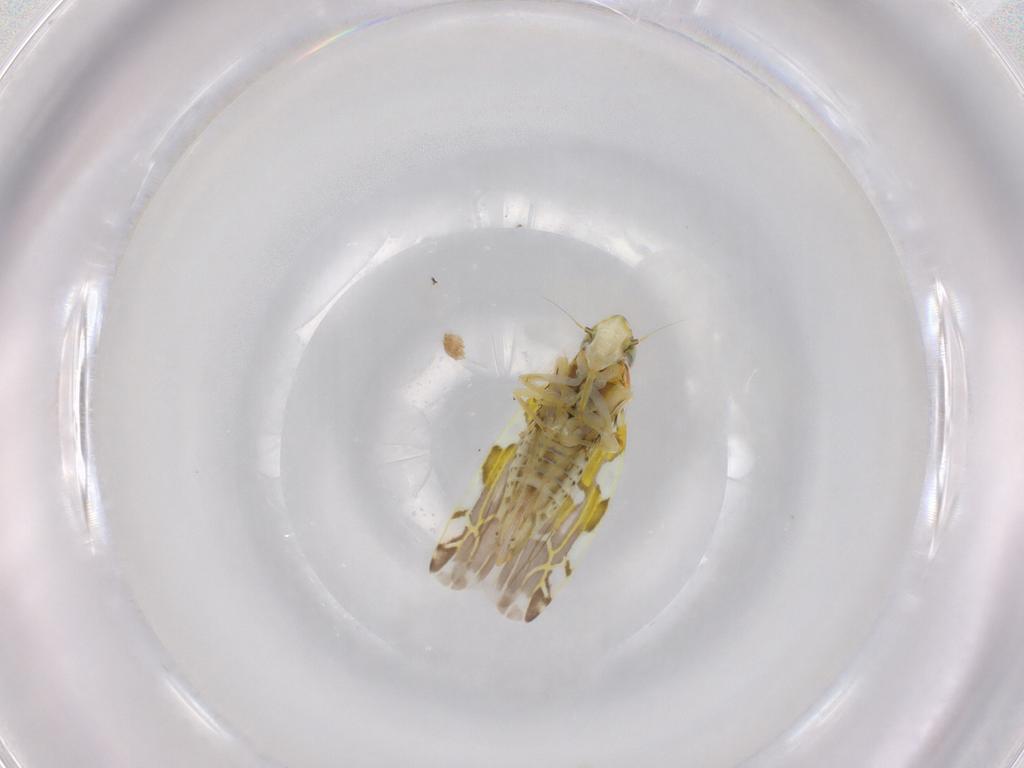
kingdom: Animalia
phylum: Arthropoda
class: Insecta
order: Hemiptera
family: Cicadellidae
